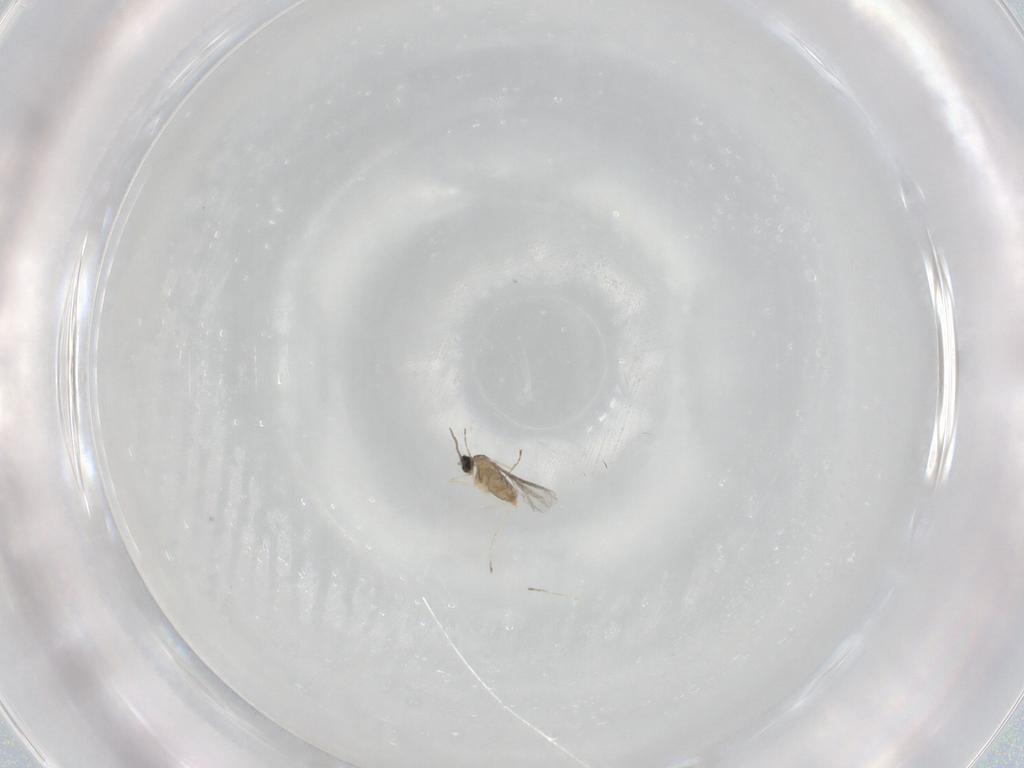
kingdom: Animalia
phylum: Arthropoda
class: Insecta
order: Diptera
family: Cecidomyiidae
